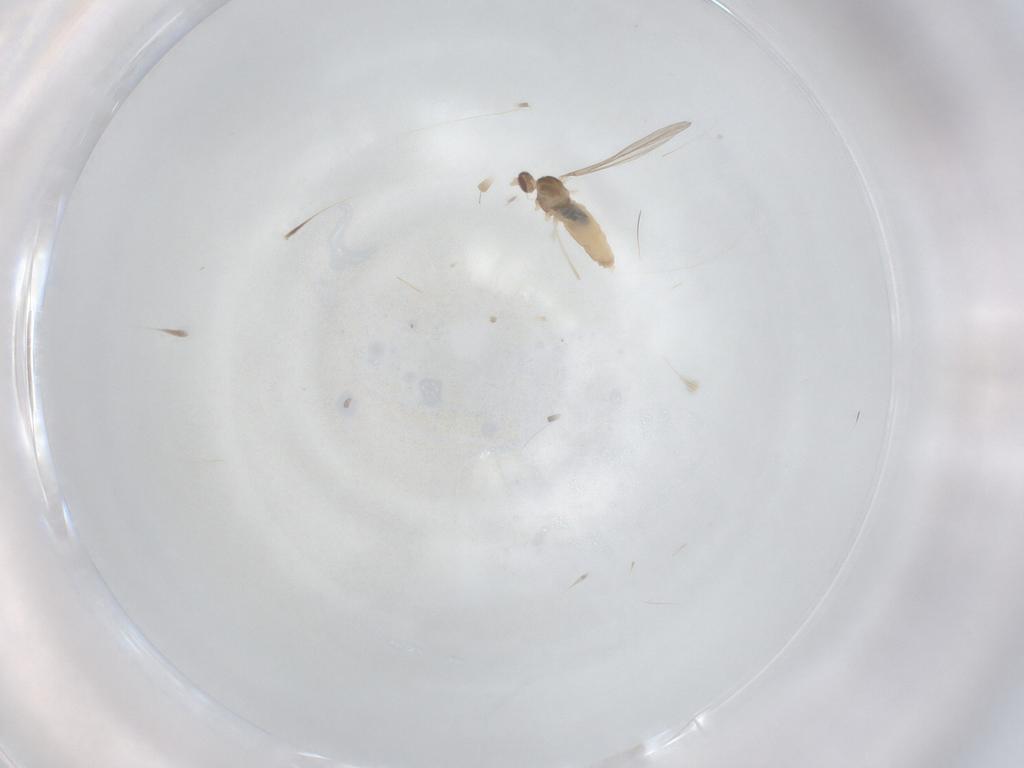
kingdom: Animalia
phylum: Arthropoda
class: Insecta
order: Diptera
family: Cecidomyiidae
